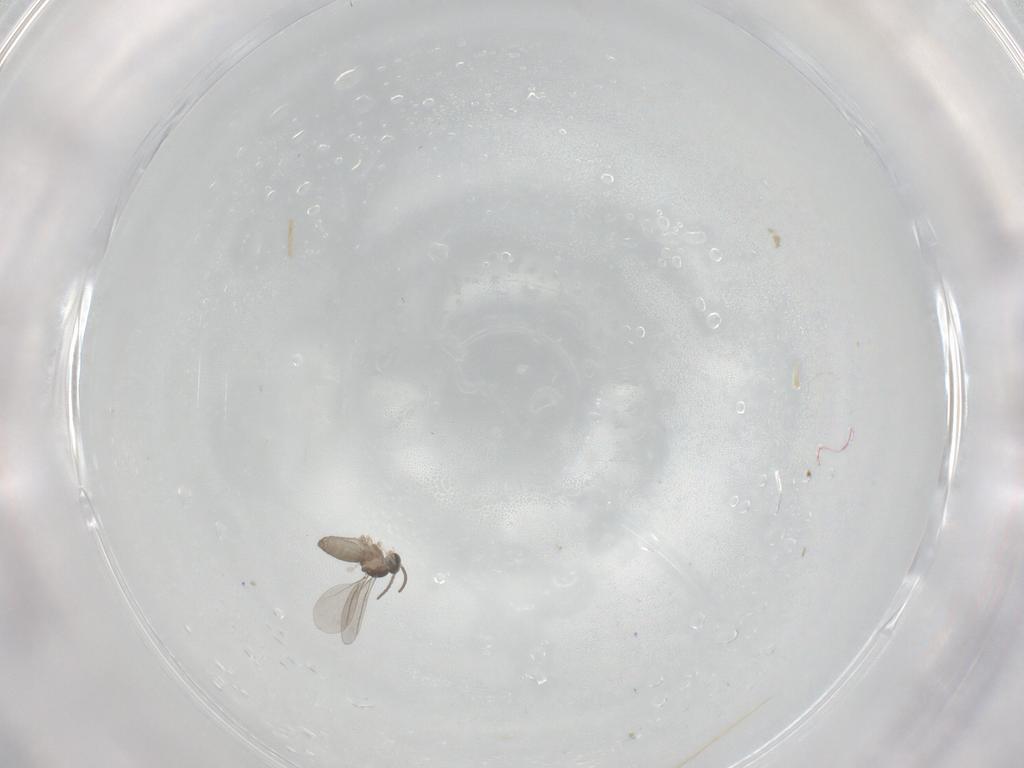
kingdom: Animalia
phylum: Arthropoda
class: Insecta
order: Diptera
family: Cecidomyiidae
